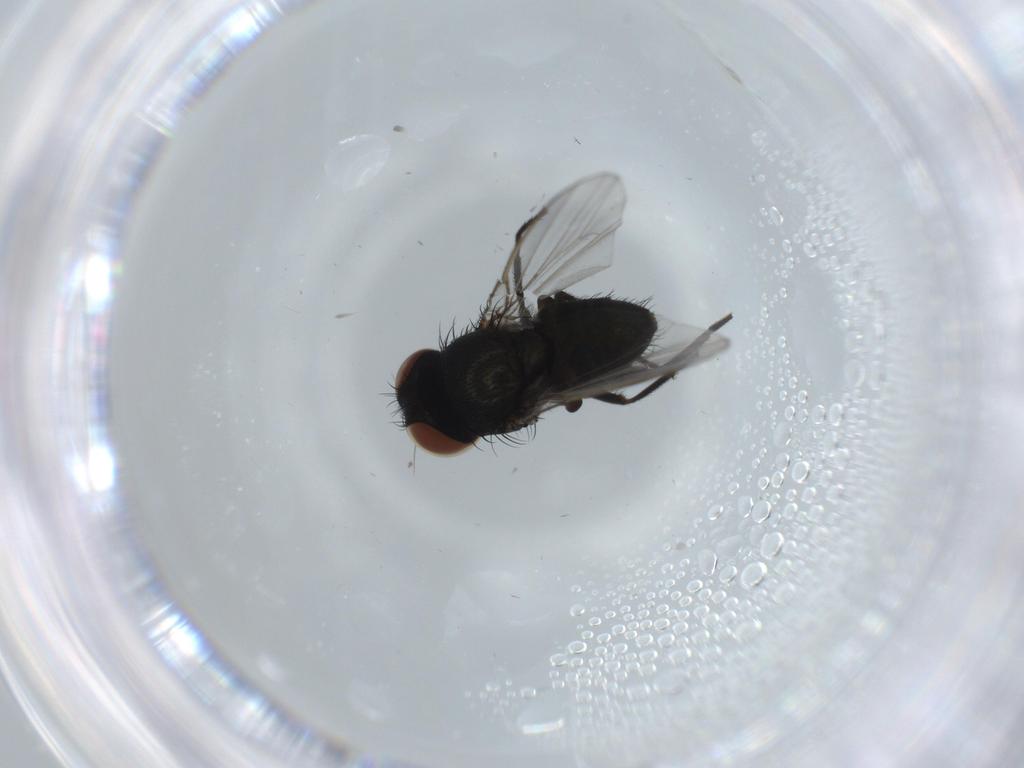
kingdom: Animalia
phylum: Arthropoda
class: Insecta
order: Diptera
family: Milichiidae
